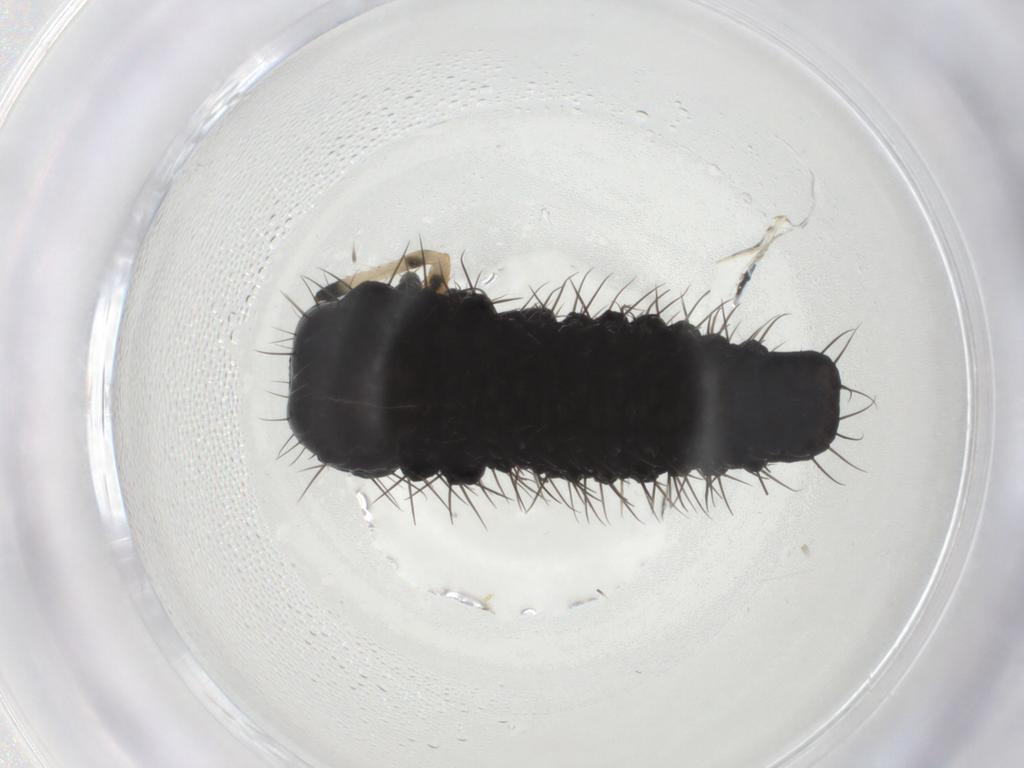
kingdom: Animalia
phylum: Arthropoda
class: Insecta
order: Coleoptera
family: Chrysomelidae
